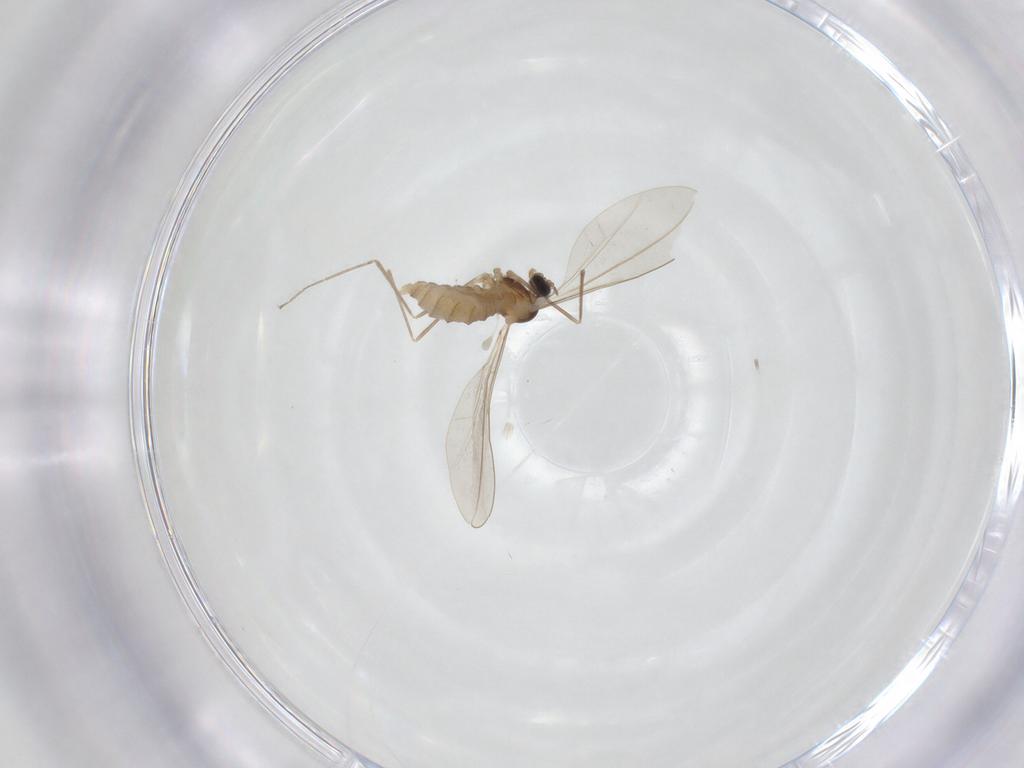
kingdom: Animalia
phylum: Arthropoda
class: Insecta
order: Diptera
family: Cecidomyiidae
